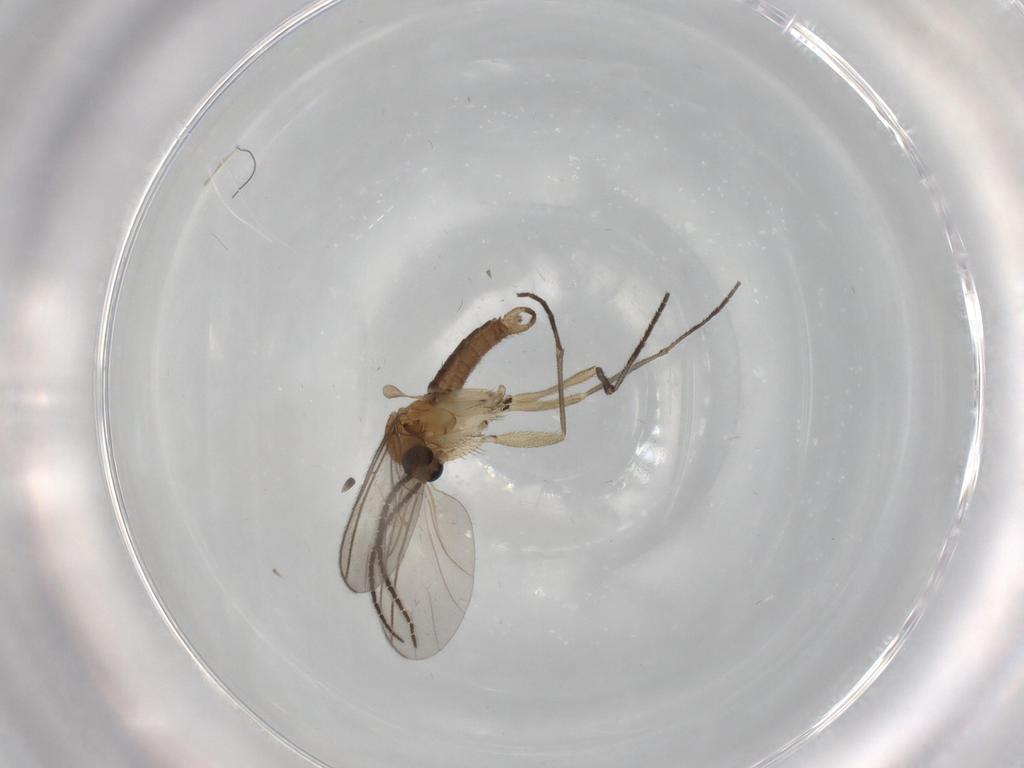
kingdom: Animalia
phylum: Arthropoda
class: Insecta
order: Diptera
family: Sciaridae
